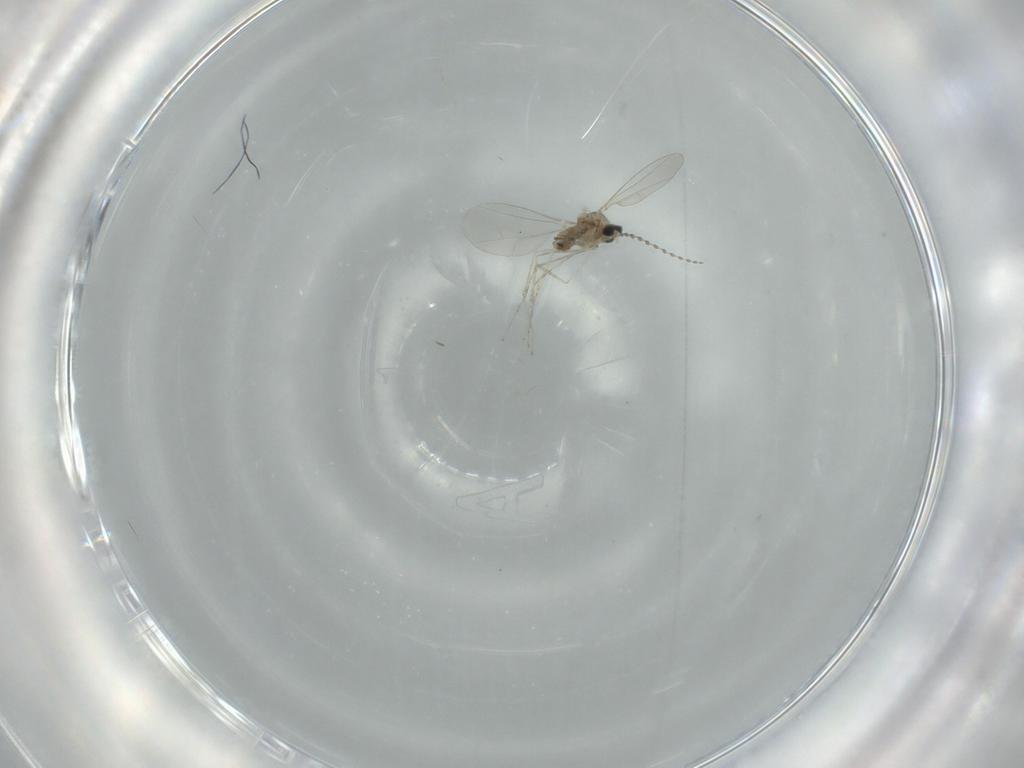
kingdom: Animalia
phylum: Arthropoda
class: Insecta
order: Diptera
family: Cecidomyiidae
